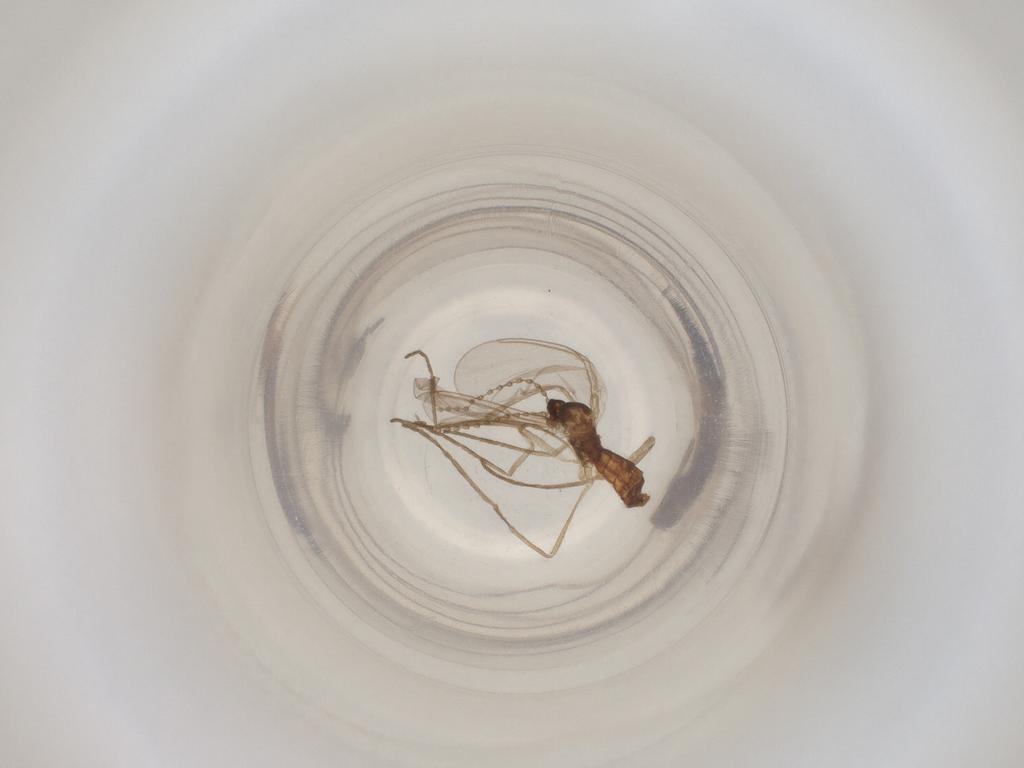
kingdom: Animalia
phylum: Arthropoda
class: Insecta
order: Diptera
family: Cecidomyiidae
